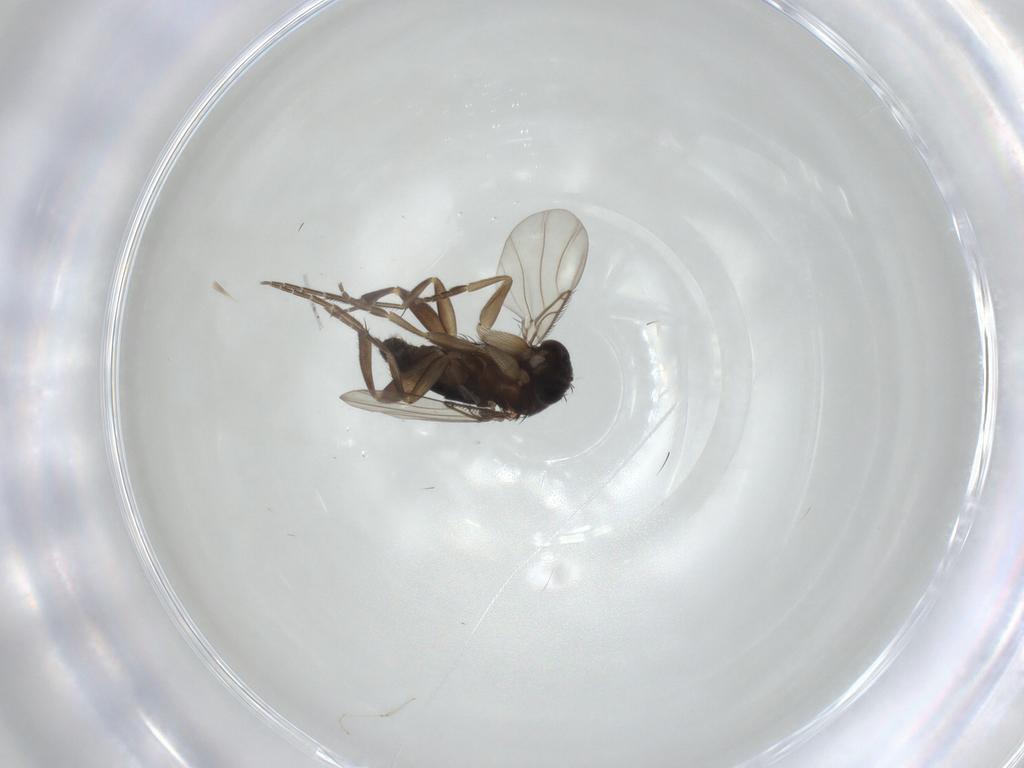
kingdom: Animalia
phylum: Arthropoda
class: Insecta
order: Diptera
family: Phoridae
